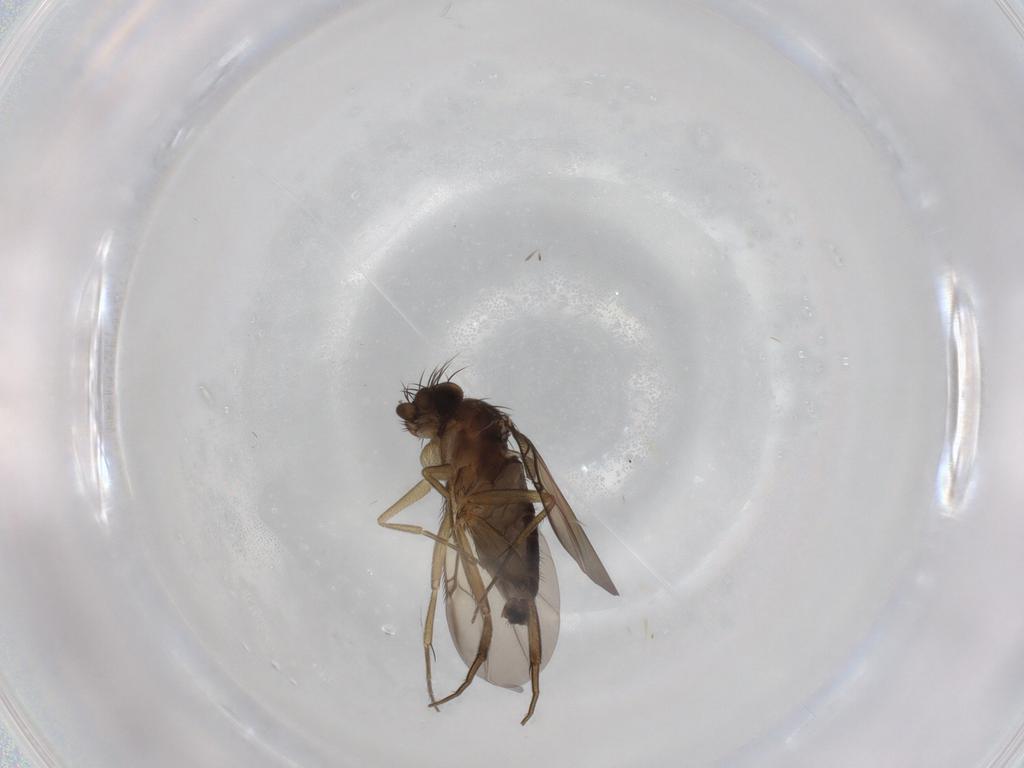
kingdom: Animalia
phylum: Arthropoda
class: Insecta
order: Diptera
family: Phoridae
